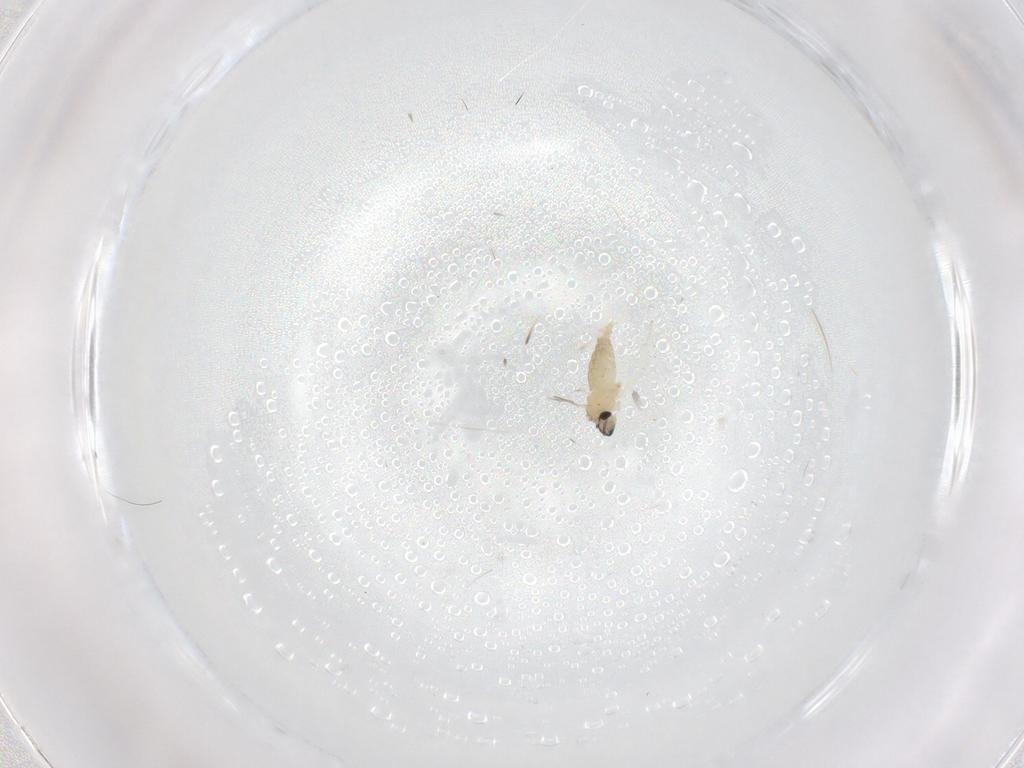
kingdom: Animalia
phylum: Arthropoda
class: Insecta
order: Diptera
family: Cecidomyiidae
